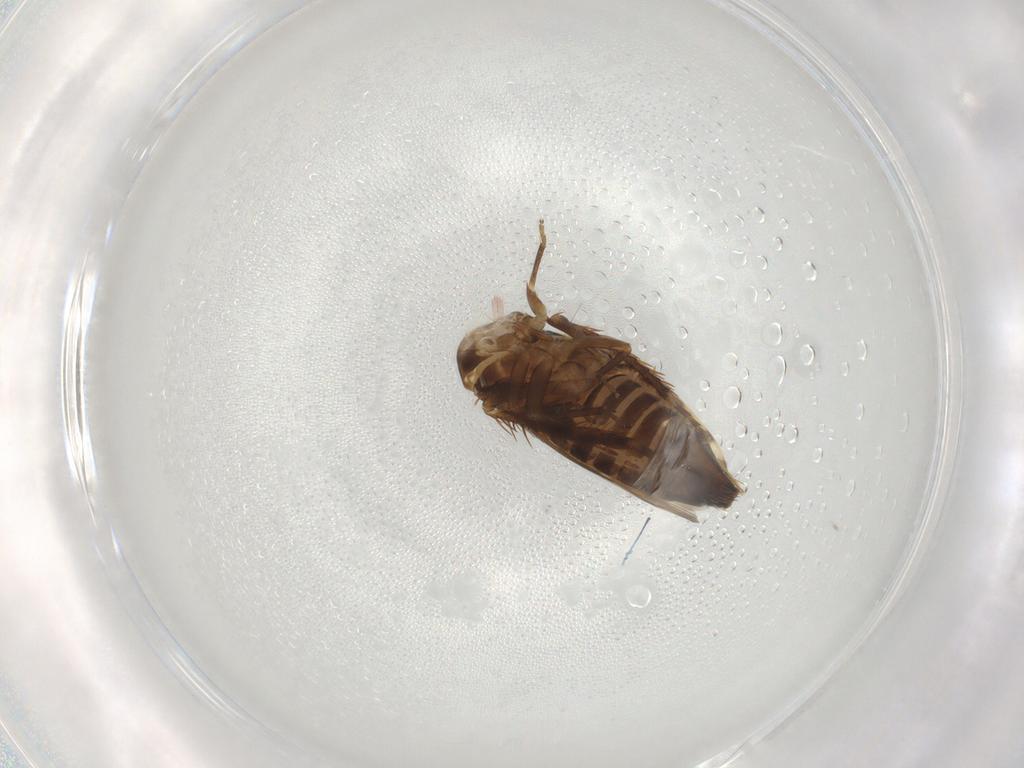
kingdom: Animalia
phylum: Arthropoda
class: Insecta
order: Hemiptera
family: Cicadellidae
